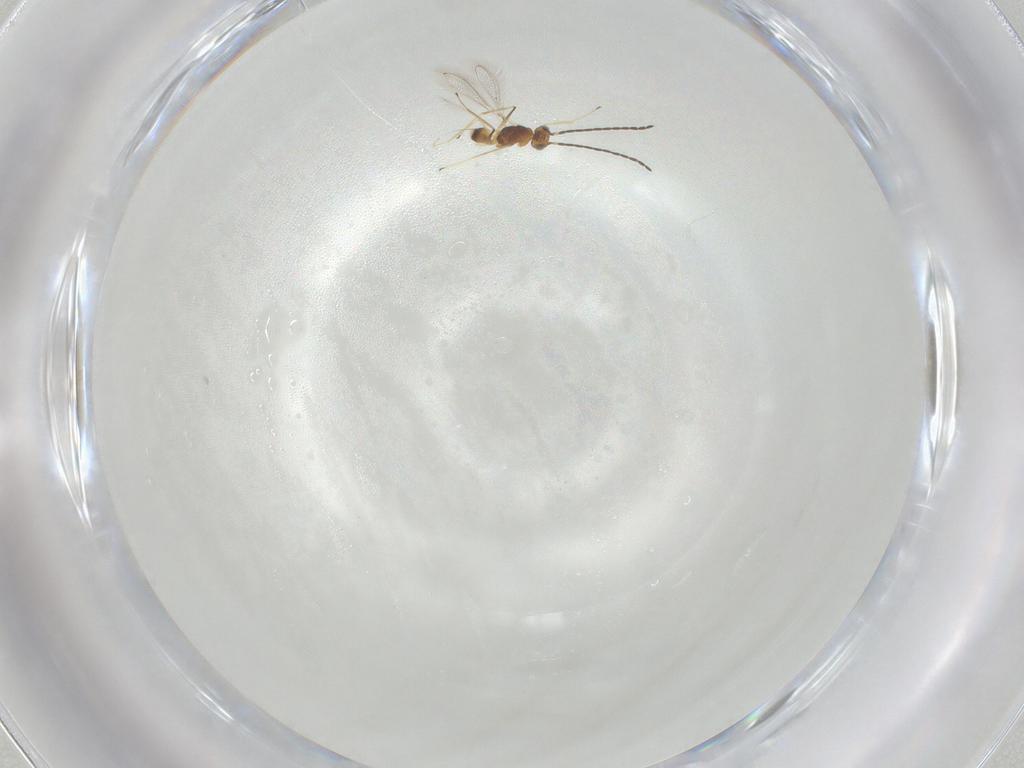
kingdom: Animalia
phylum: Arthropoda
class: Insecta
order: Hymenoptera
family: Mymaridae
